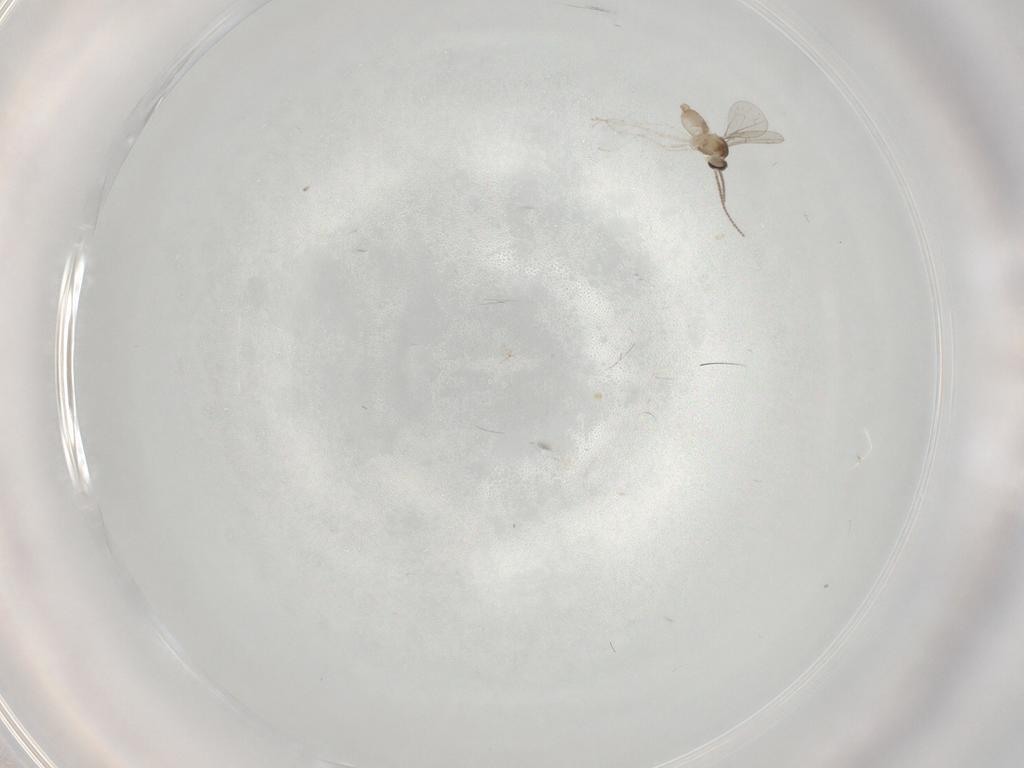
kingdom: Animalia
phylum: Arthropoda
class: Insecta
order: Diptera
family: Cecidomyiidae
